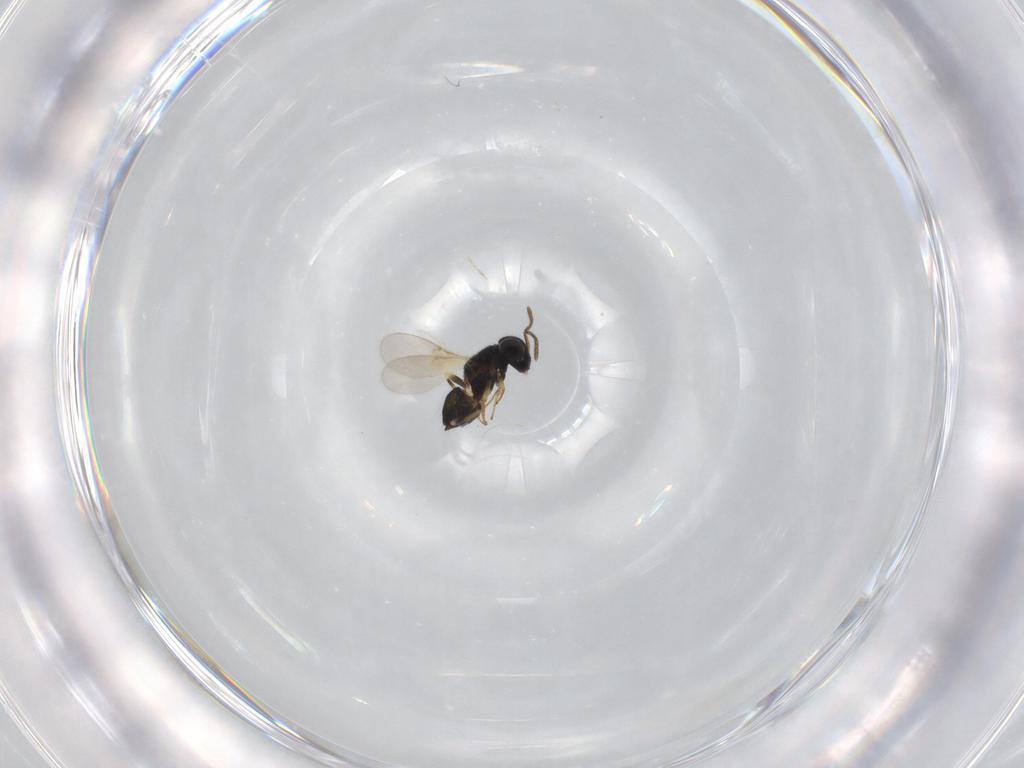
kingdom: Animalia
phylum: Arthropoda
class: Insecta
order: Hymenoptera
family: Encyrtidae
